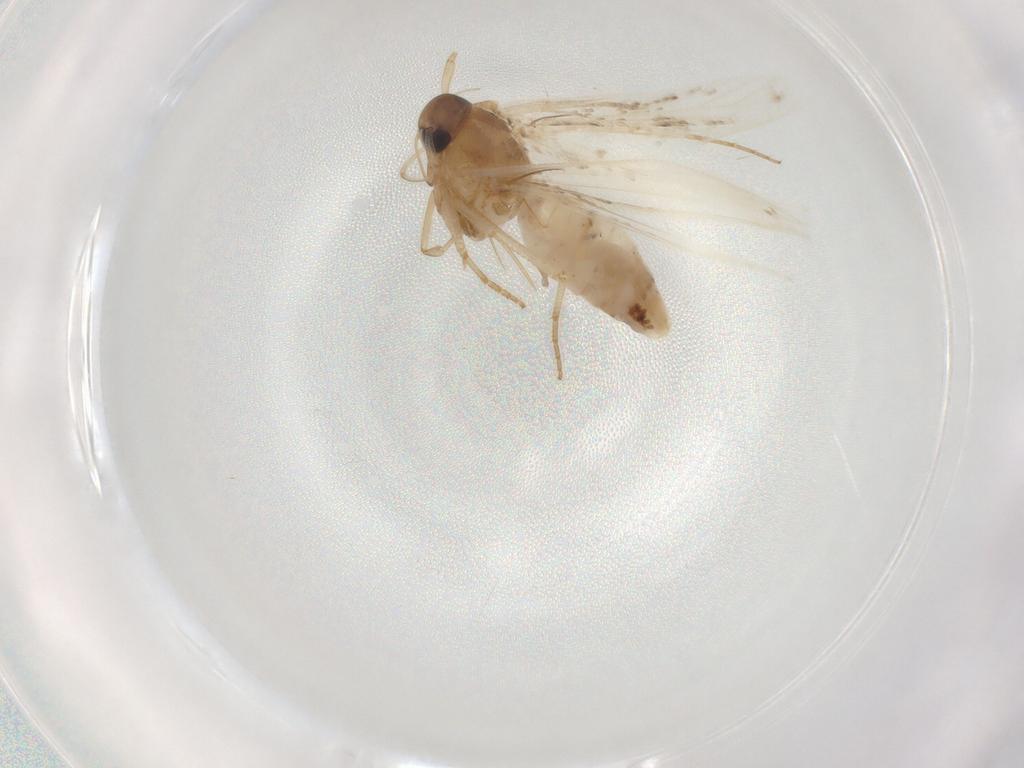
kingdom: Animalia
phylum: Arthropoda
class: Insecta
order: Lepidoptera
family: Cosmopterigidae
